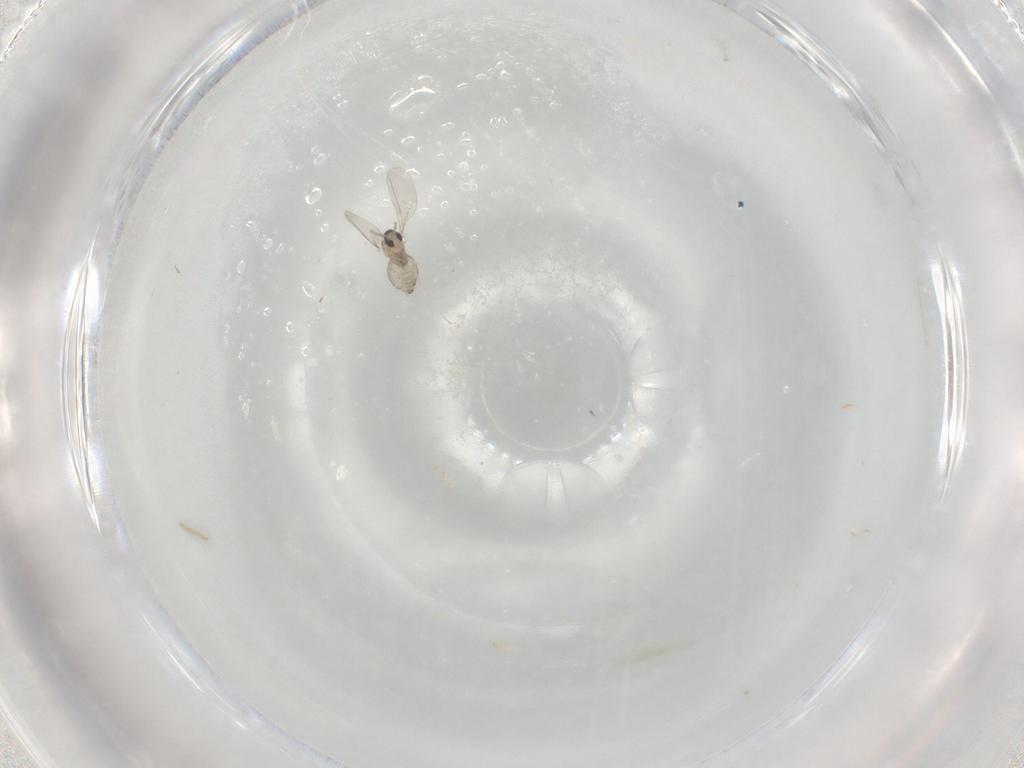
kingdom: Animalia
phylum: Arthropoda
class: Insecta
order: Diptera
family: Cecidomyiidae
